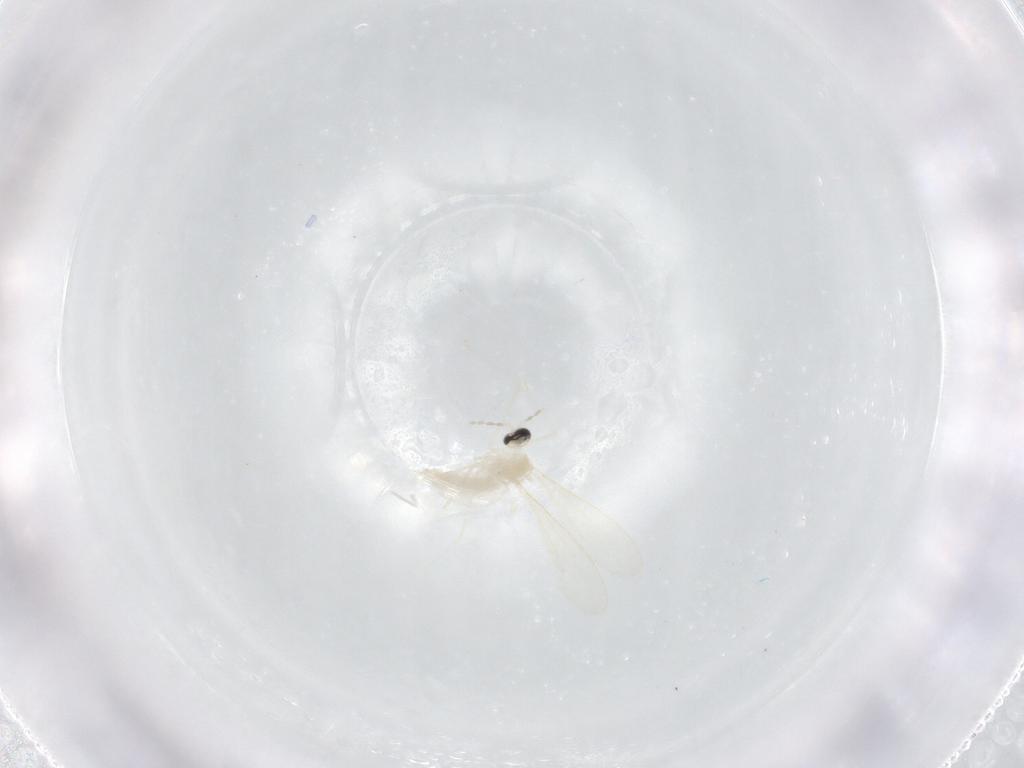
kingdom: Animalia
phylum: Arthropoda
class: Insecta
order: Diptera
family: Cecidomyiidae
